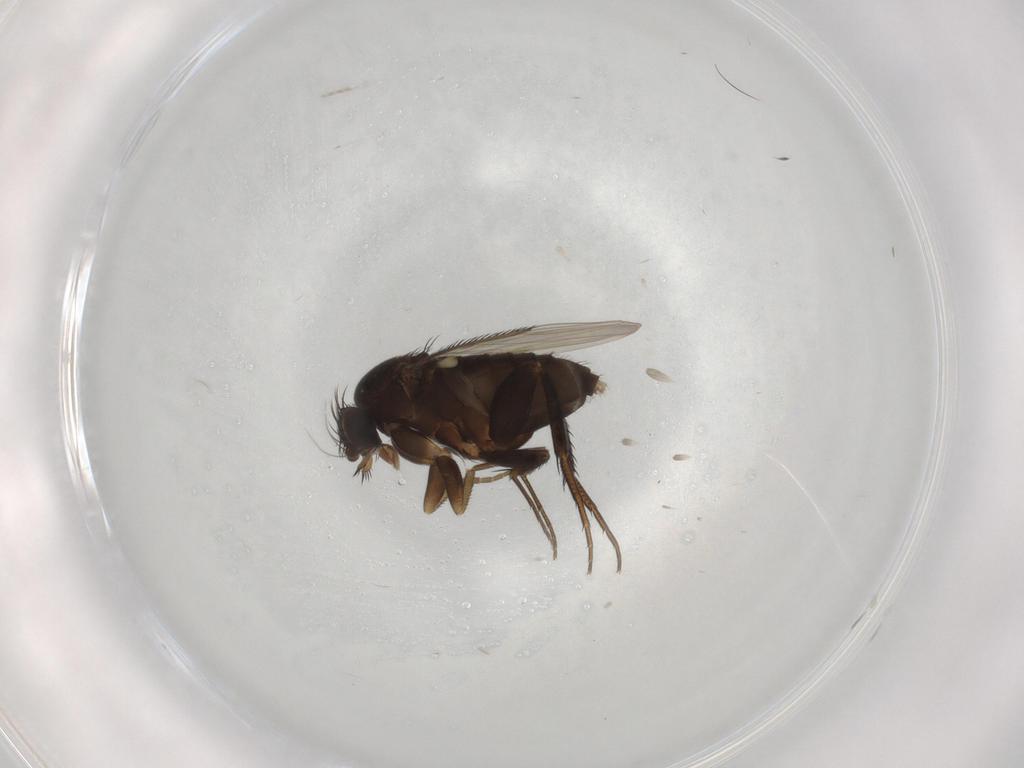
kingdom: Animalia
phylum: Arthropoda
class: Insecta
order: Diptera
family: Phoridae
